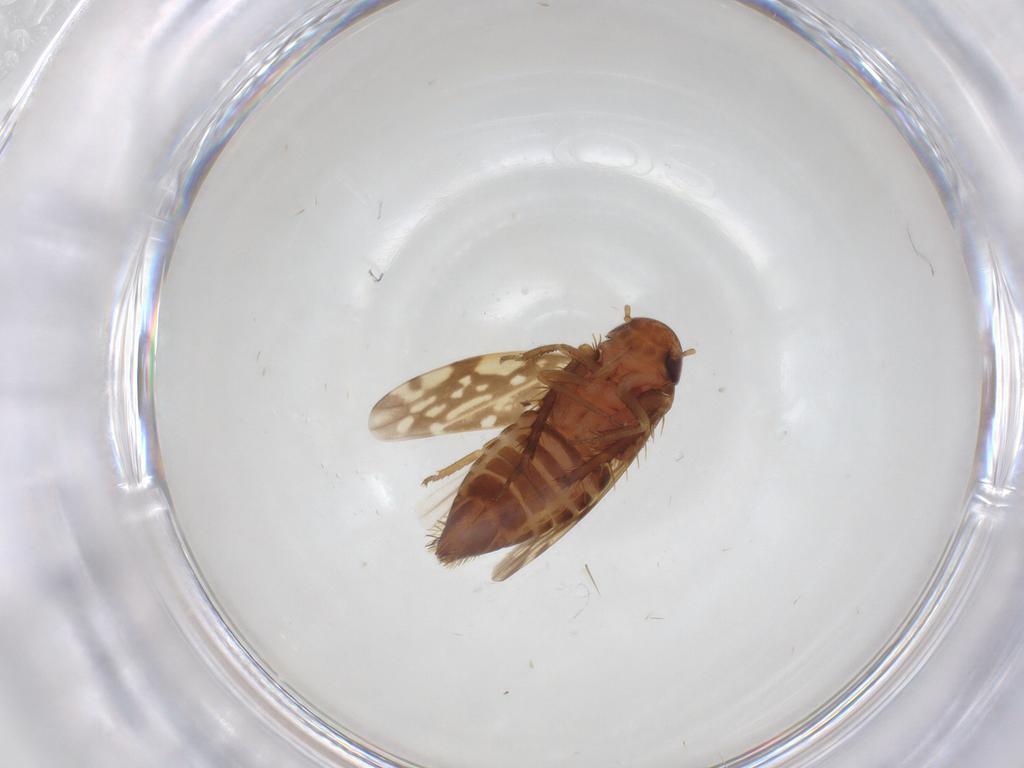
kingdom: Animalia
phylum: Arthropoda
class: Insecta
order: Hemiptera
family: Cicadellidae
